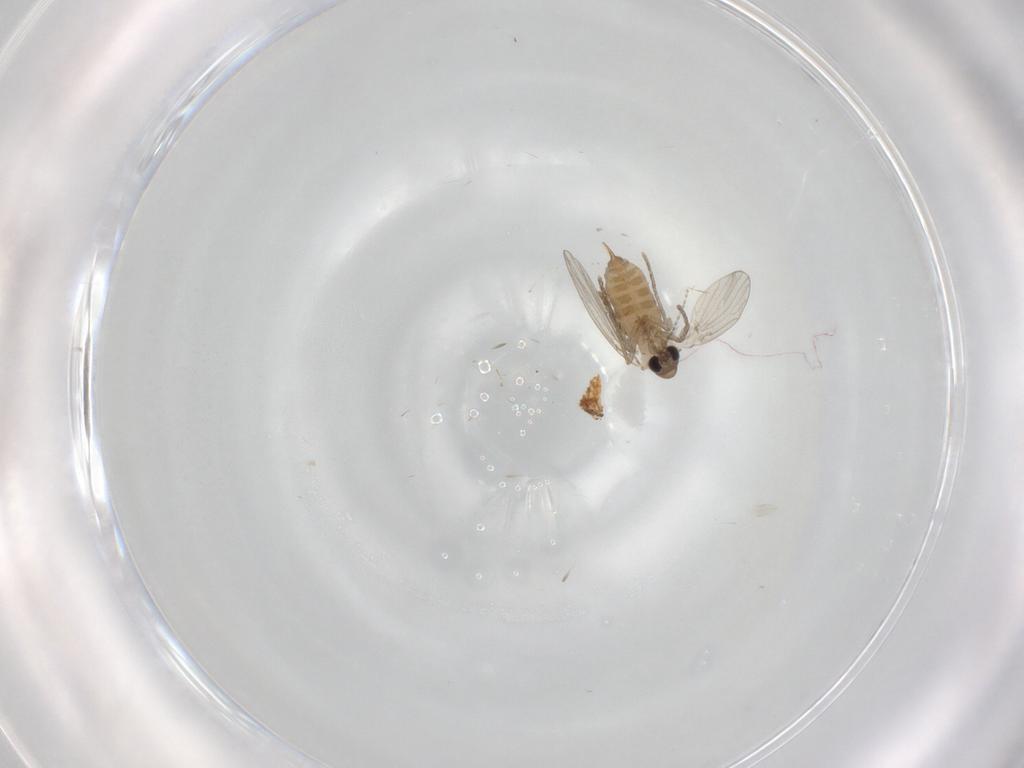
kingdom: Animalia
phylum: Arthropoda
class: Insecta
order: Diptera
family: Psychodidae
